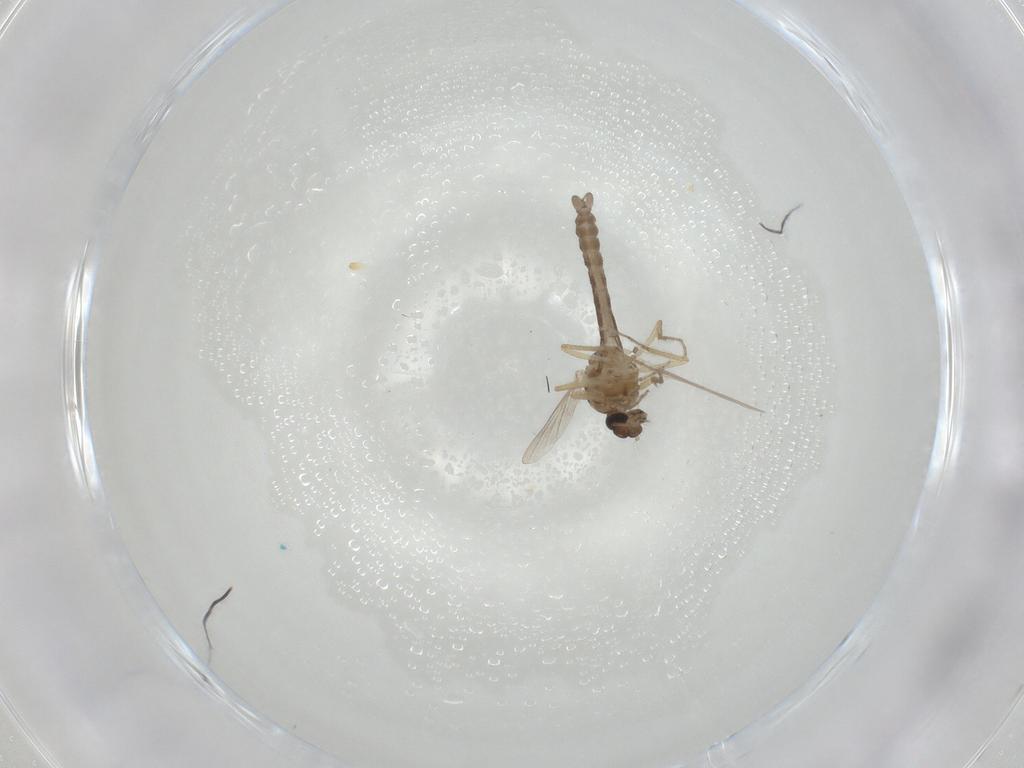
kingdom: Animalia
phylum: Arthropoda
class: Insecta
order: Diptera
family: Ceratopogonidae
